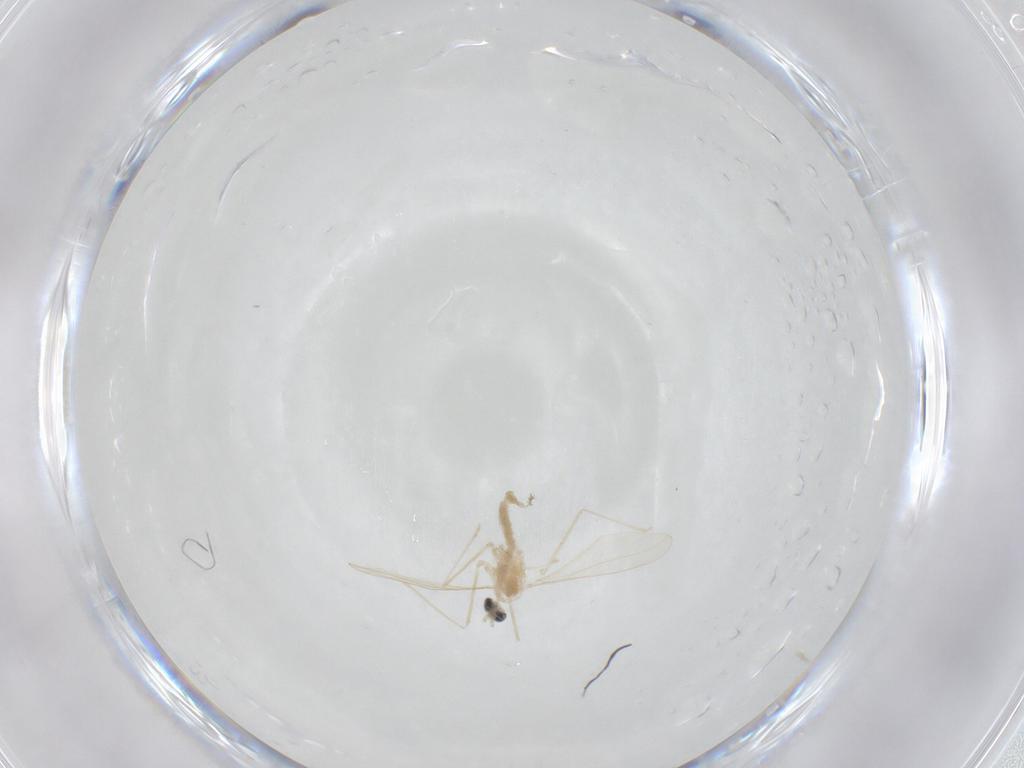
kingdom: Animalia
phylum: Arthropoda
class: Insecta
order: Diptera
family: Cecidomyiidae
